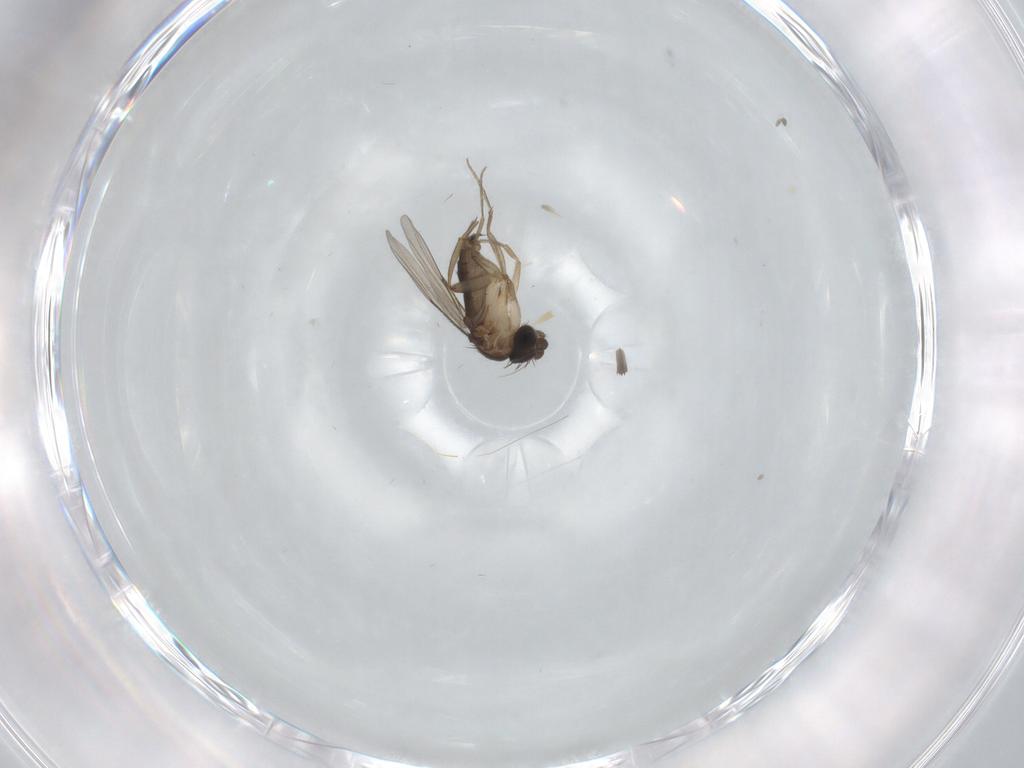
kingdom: Animalia
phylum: Arthropoda
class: Insecta
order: Diptera
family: Phoridae
